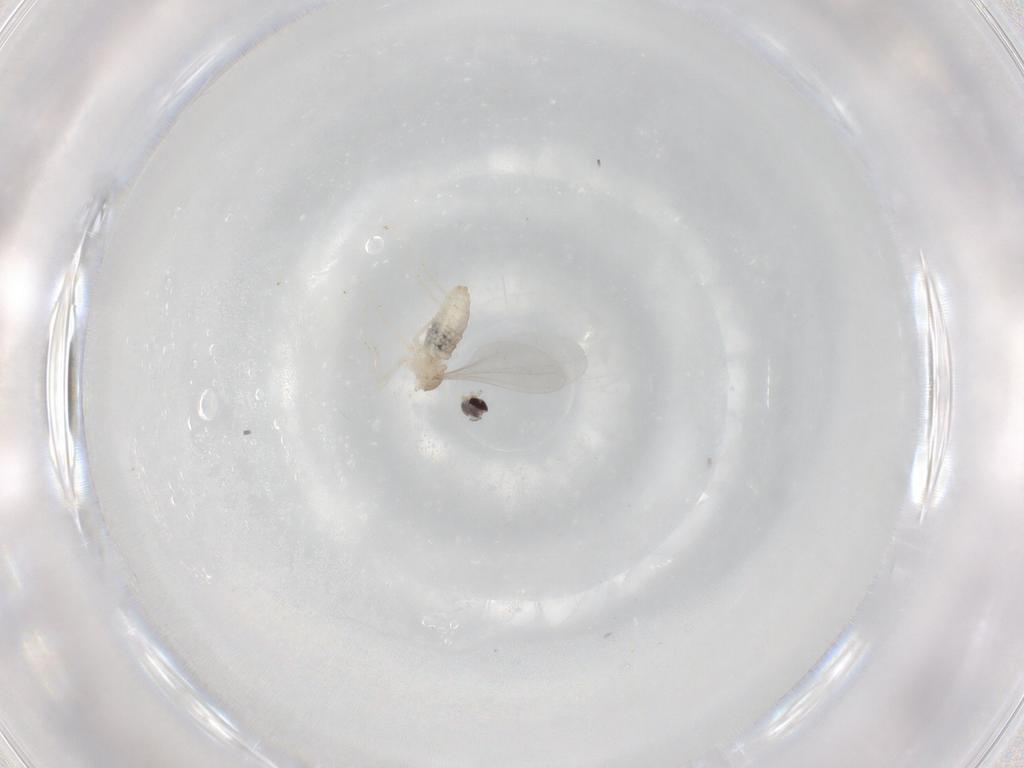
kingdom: Animalia
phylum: Arthropoda
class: Insecta
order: Diptera
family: Cecidomyiidae
